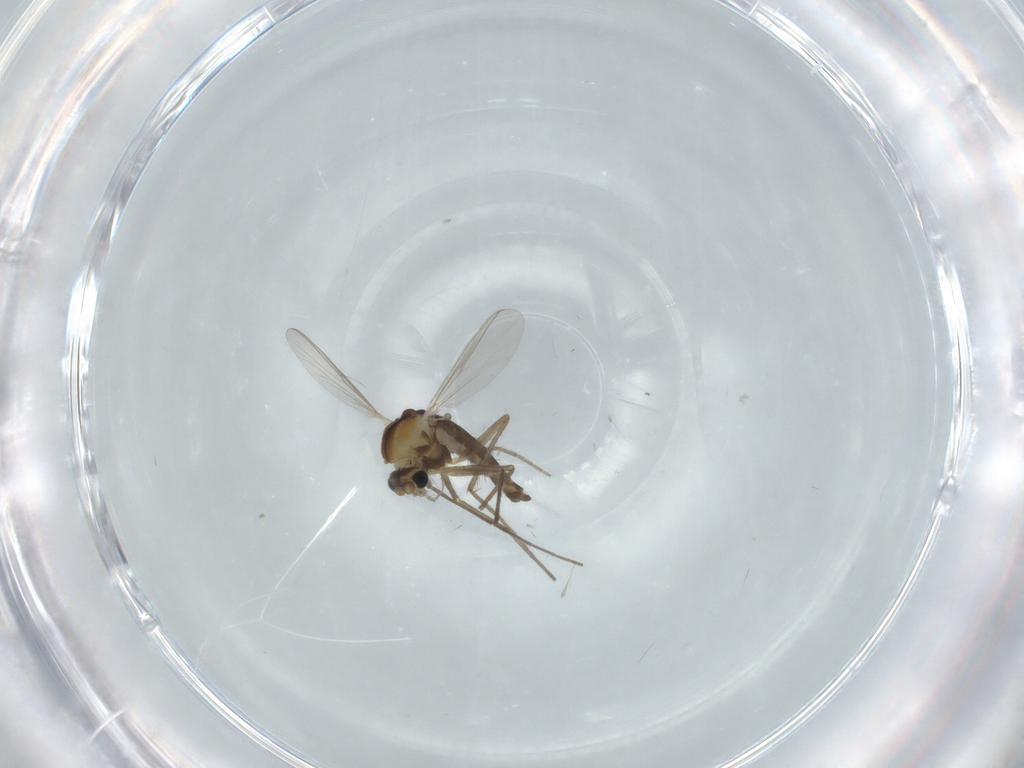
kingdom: Animalia
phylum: Arthropoda
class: Insecta
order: Diptera
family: Chironomidae
